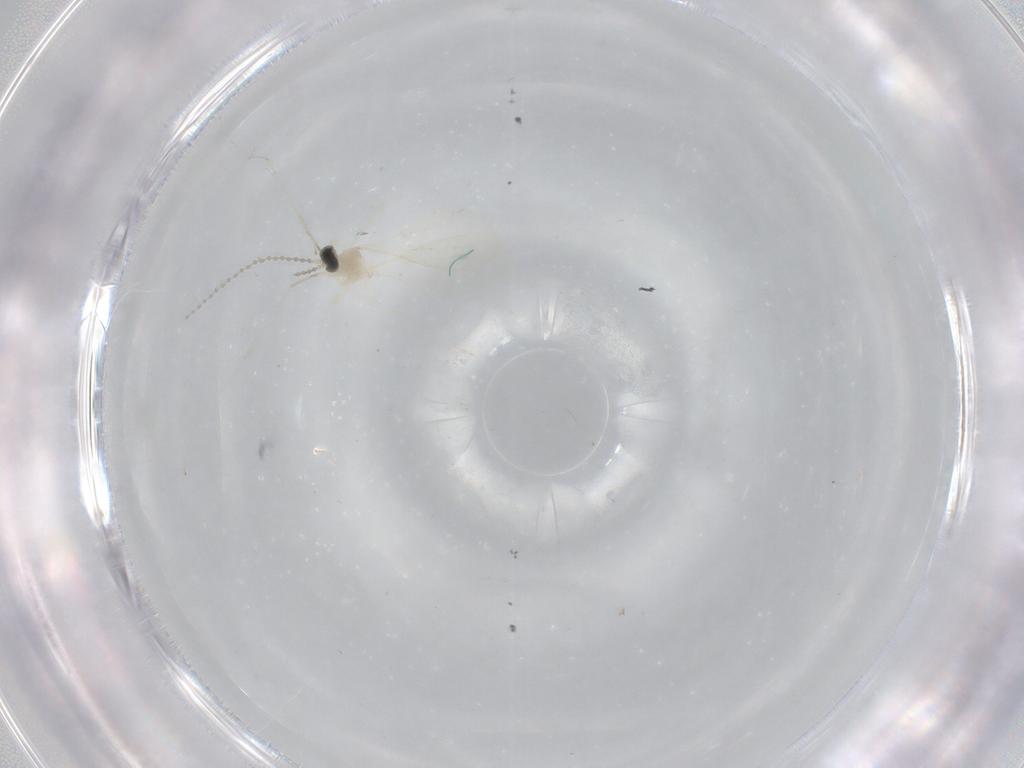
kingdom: Animalia
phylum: Arthropoda
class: Insecta
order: Diptera
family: Cecidomyiidae
